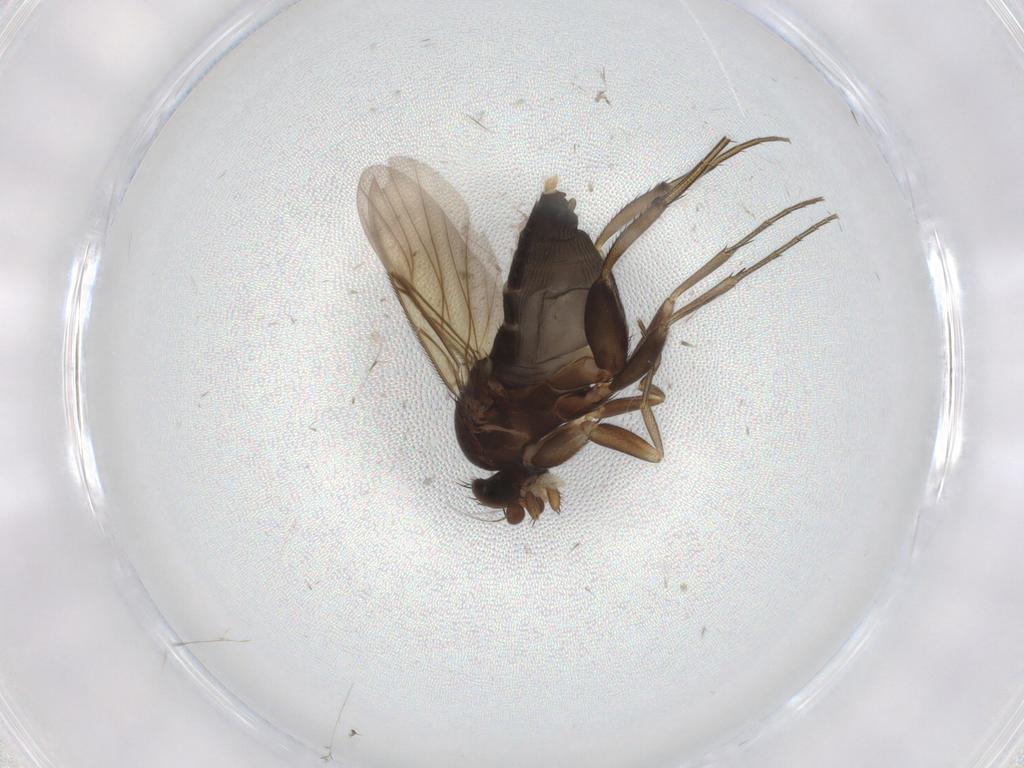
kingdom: Animalia
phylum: Arthropoda
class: Insecta
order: Diptera
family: Phoridae
